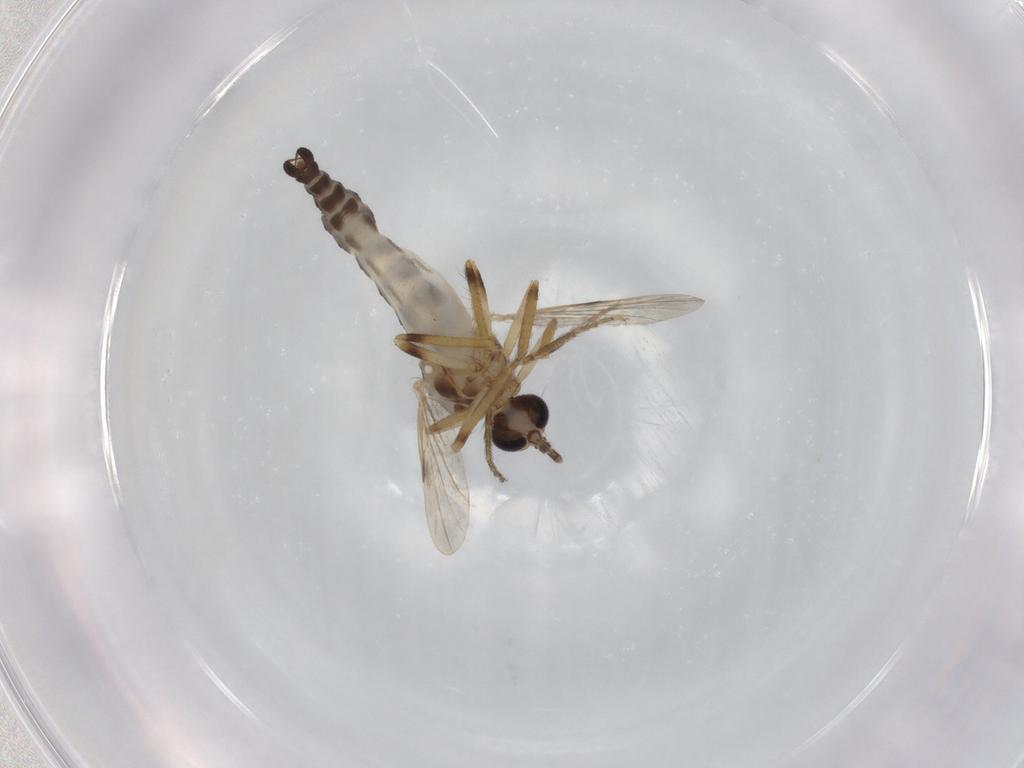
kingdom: Animalia
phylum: Arthropoda
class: Insecta
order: Diptera
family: Ceratopogonidae
